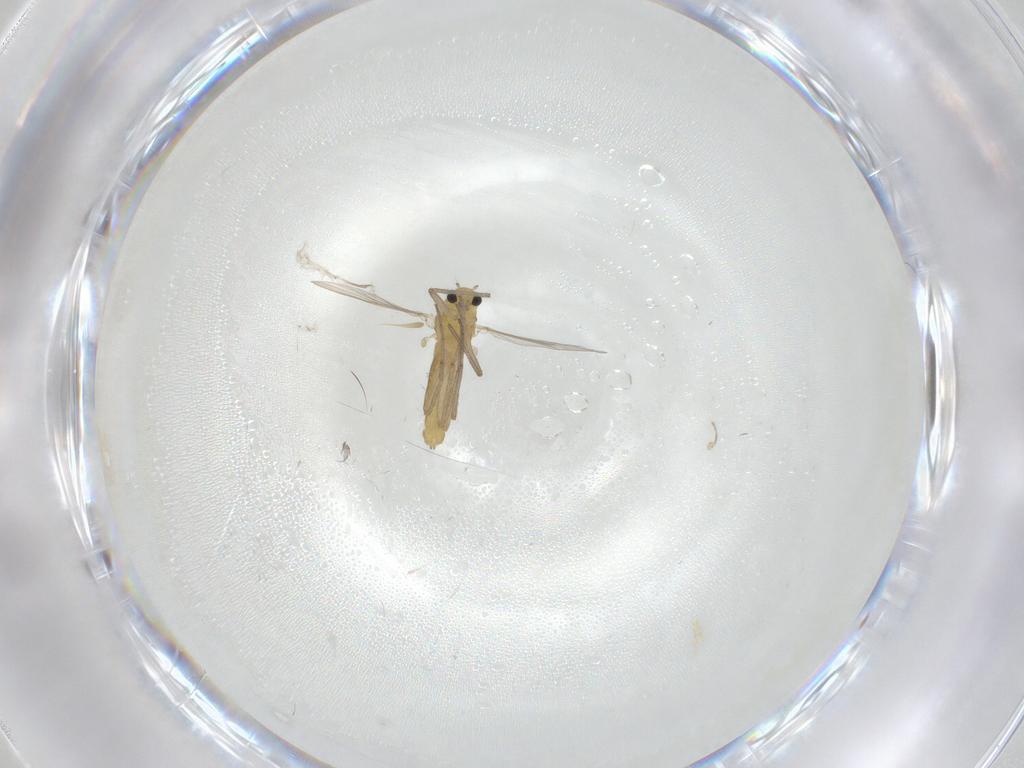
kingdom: Animalia
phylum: Arthropoda
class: Insecta
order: Diptera
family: Chironomidae
